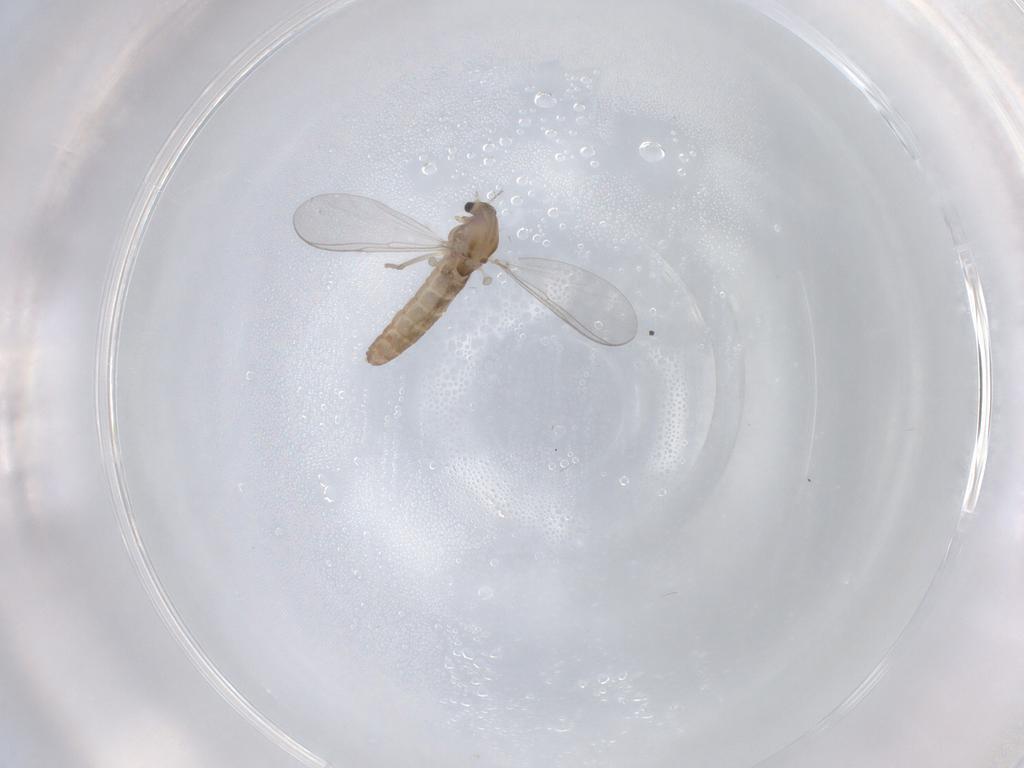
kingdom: Animalia
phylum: Arthropoda
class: Insecta
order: Diptera
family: Chironomidae
